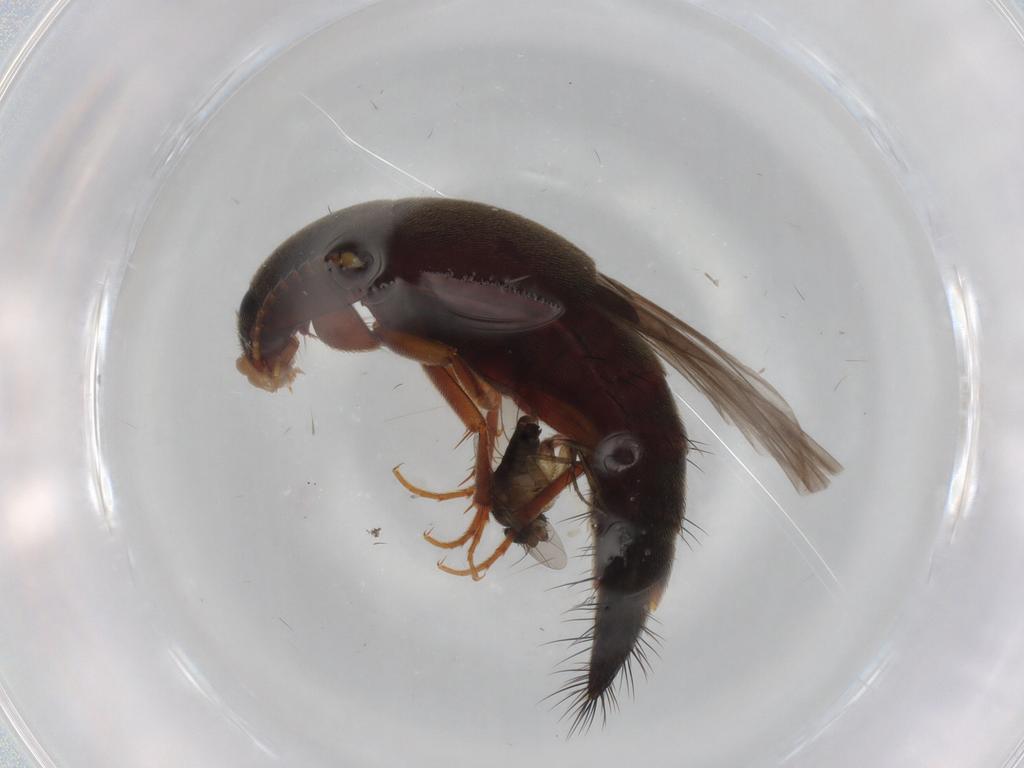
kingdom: Animalia
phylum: Arthropoda
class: Insecta
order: Coleoptera
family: Staphylinidae
